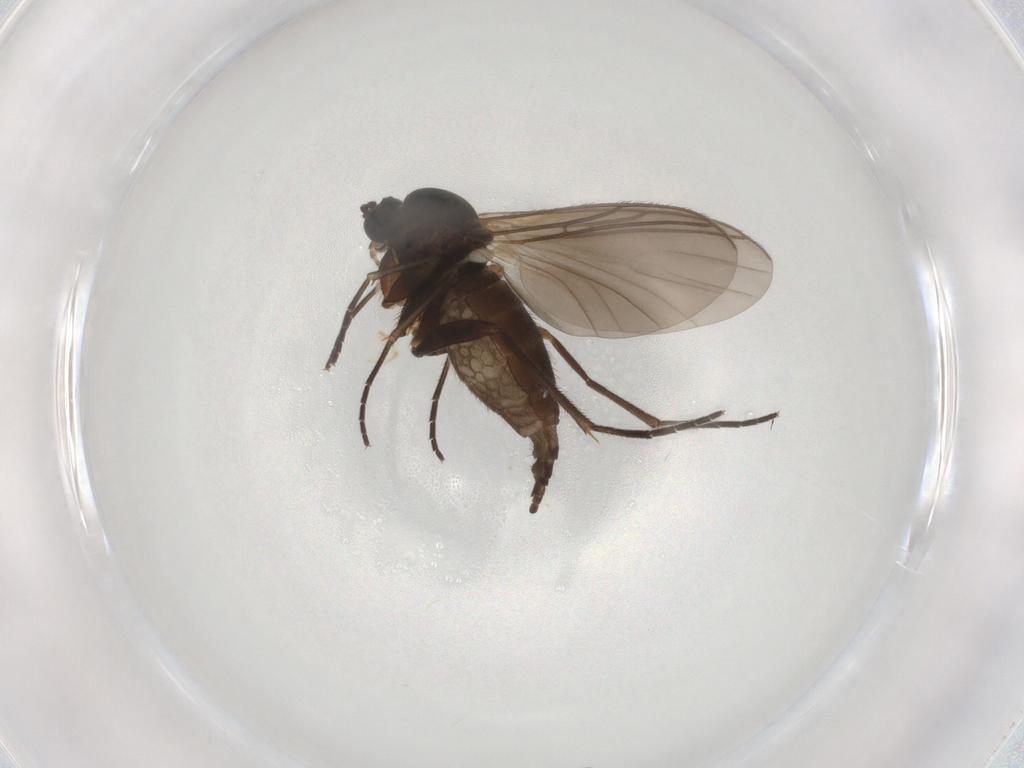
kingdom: Animalia
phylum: Arthropoda
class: Insecta
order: Diptera
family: Sciaridae
